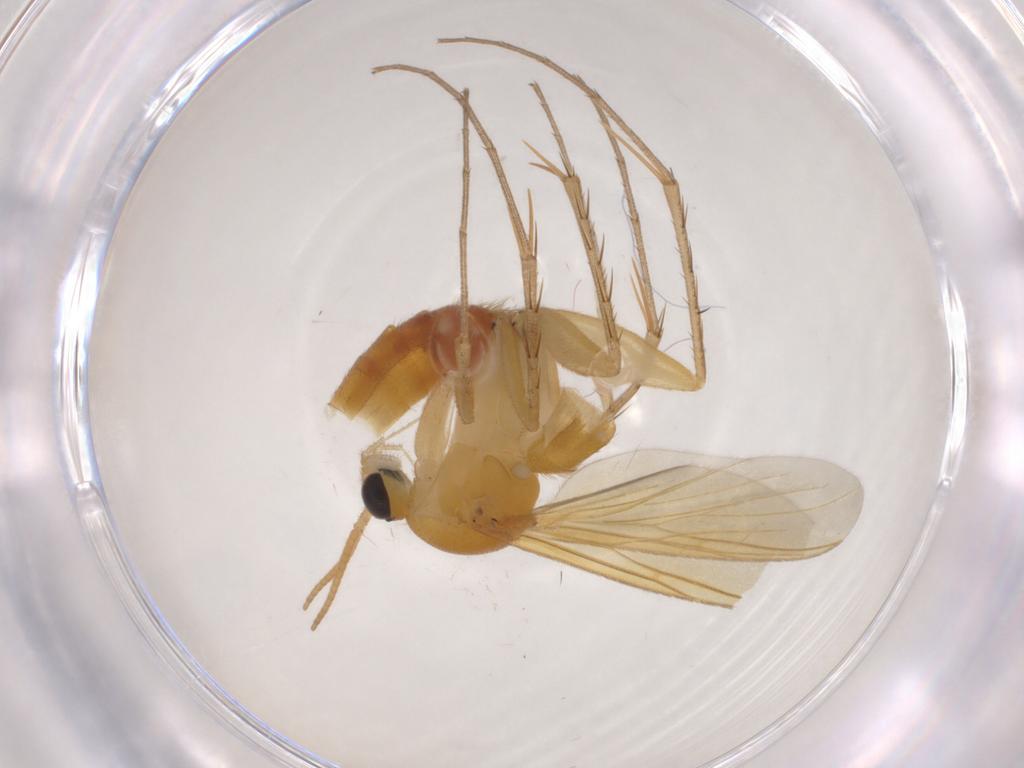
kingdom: Animalia
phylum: Arthropoda
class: Insecta
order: Diptera
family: Mycetophilidae
